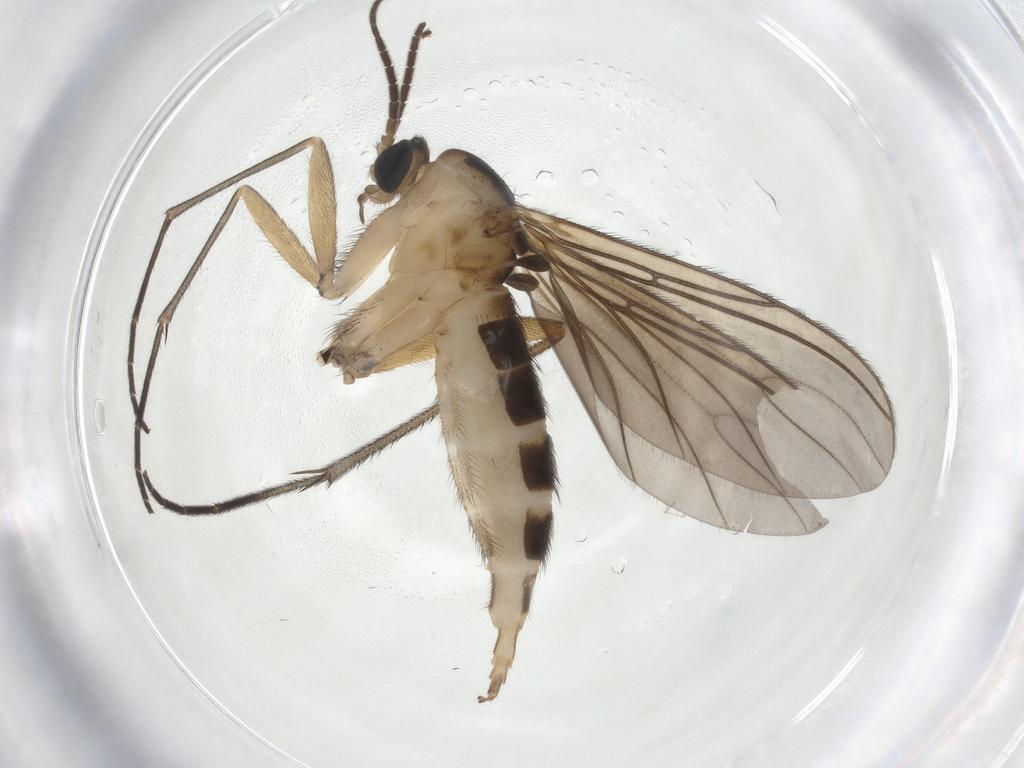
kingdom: Animalia
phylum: Arthropoda
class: Insecta
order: Diptera
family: Sciaridae
